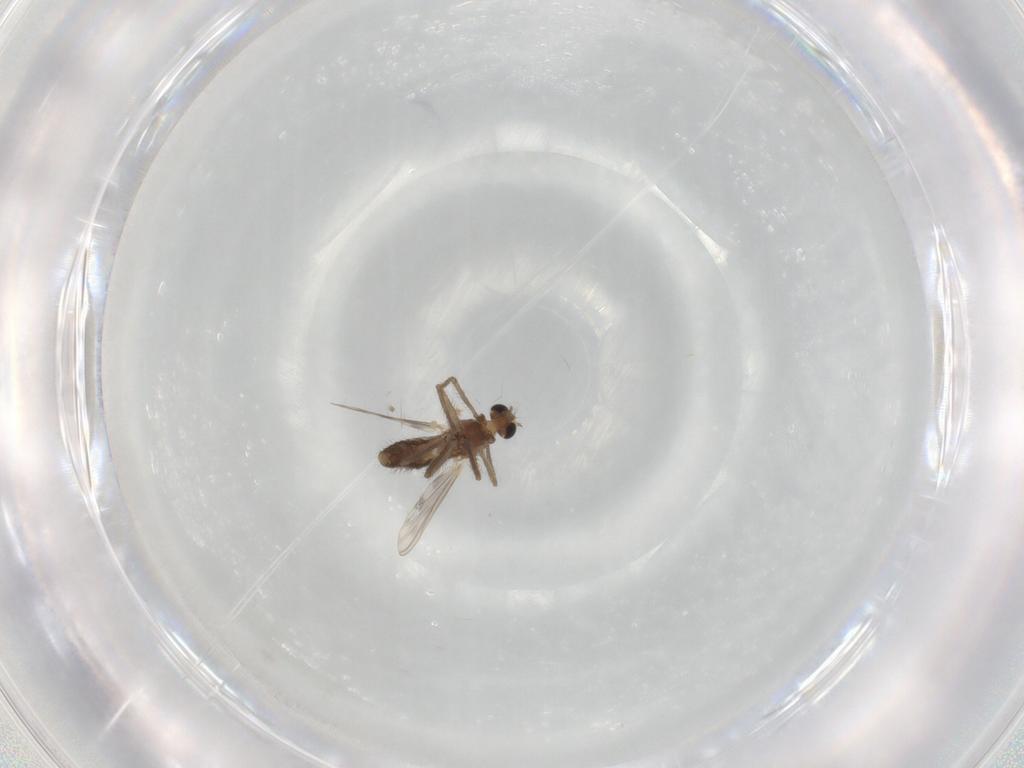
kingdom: Animalia
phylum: Arthropoda
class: Insecta
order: Diptera
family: Chironomidae
